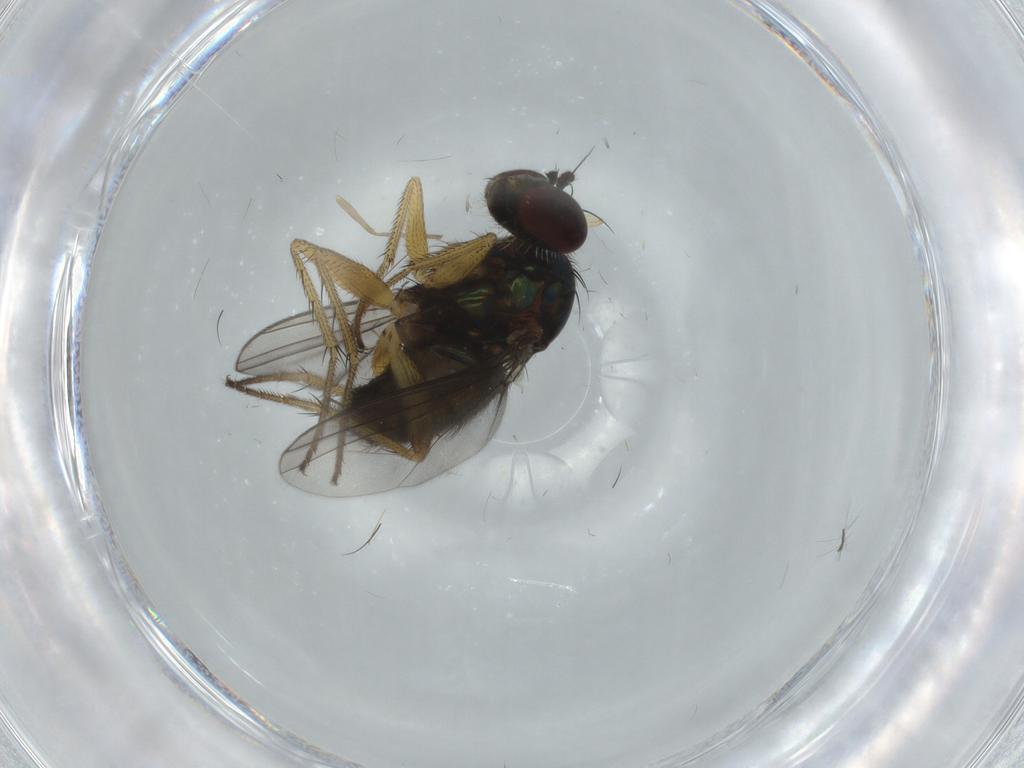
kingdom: Animalia
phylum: Arthropoda
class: Insecta
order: Diptera
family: Dolichopodidae
